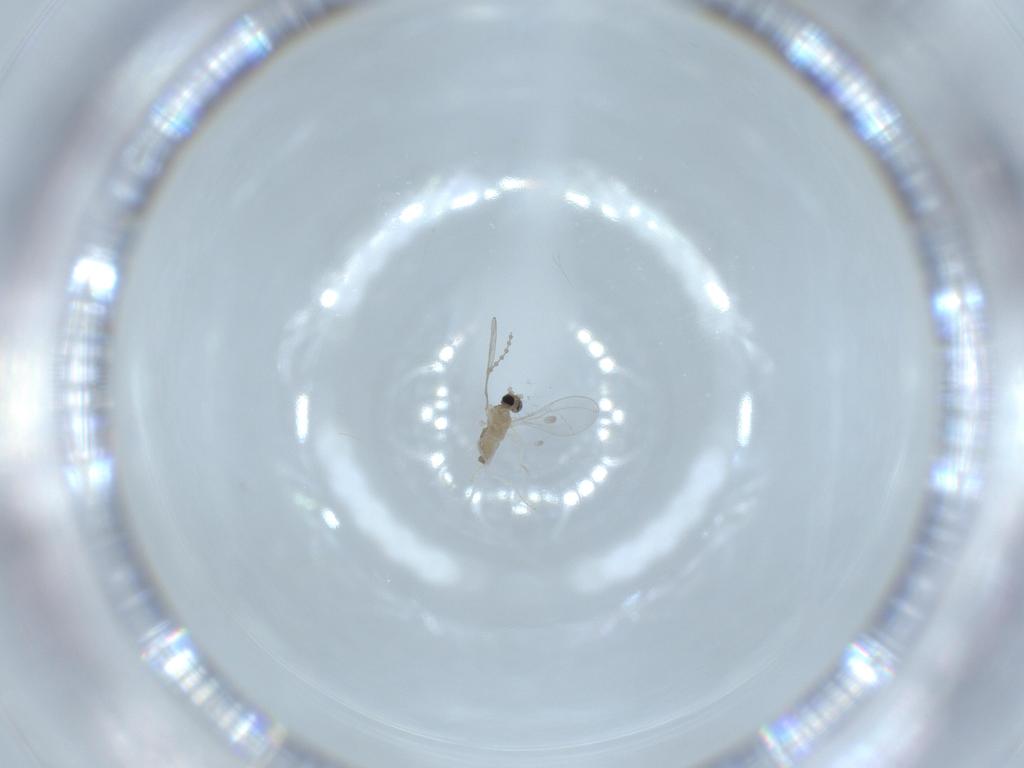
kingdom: Animalia
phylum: Arthropoda
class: Insecta
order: Diptera
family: Cecidomyiidae
